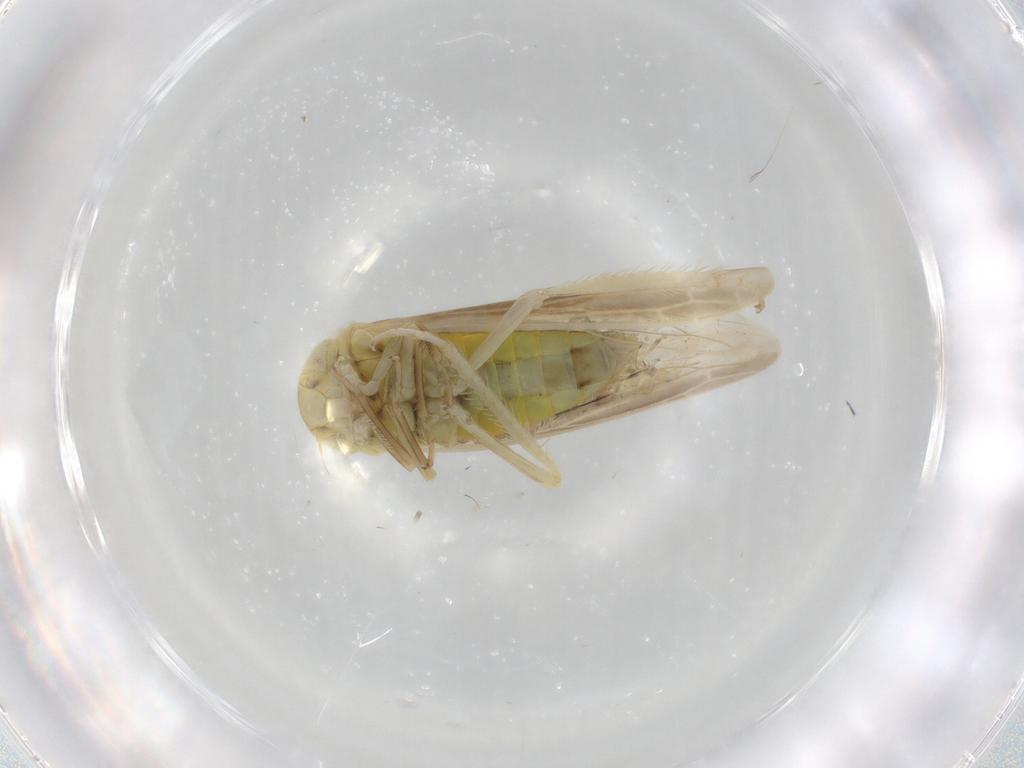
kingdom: Animalia
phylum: Arthropoda
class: Insecta
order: Hemiptera
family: Cicadellidae
